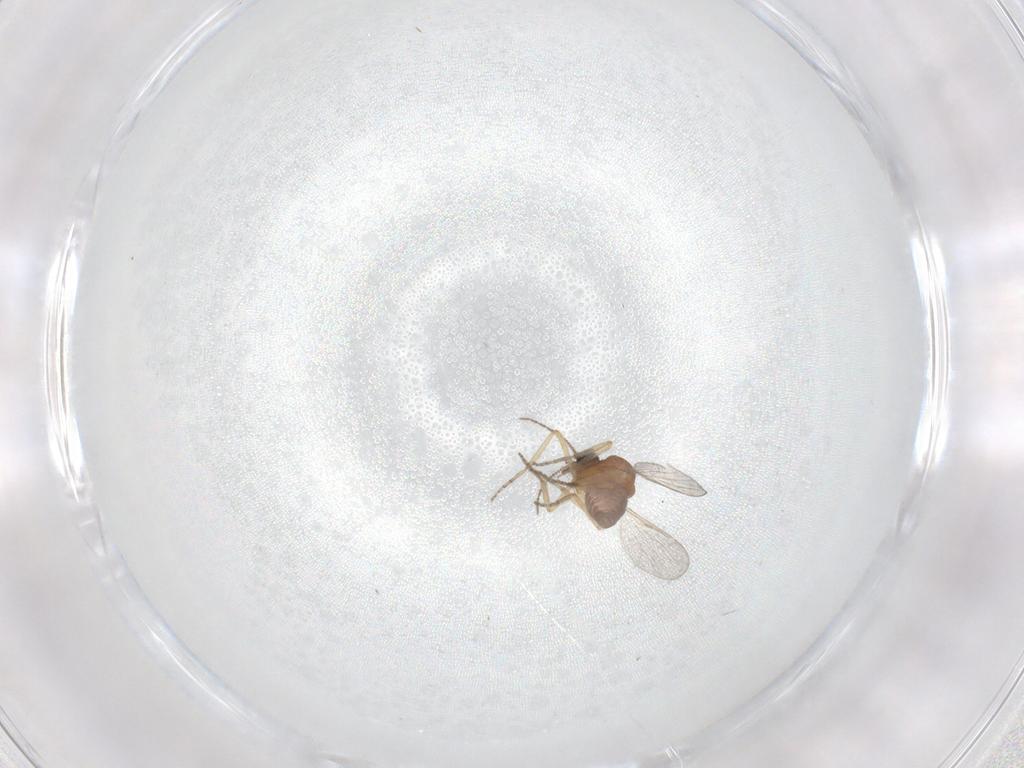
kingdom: Animalia
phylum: Arthropoda
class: Insecta
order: Diptera
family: Ceratopogonidae
